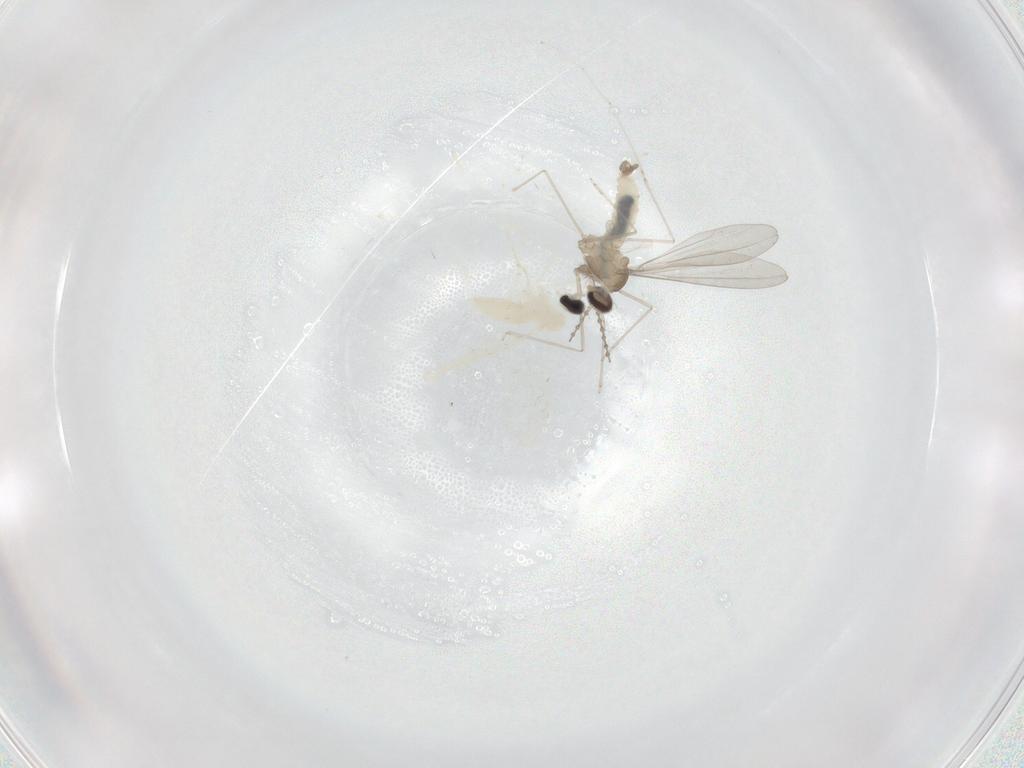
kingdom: Animalia
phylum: Arthropoda
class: Insecta
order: Diptera
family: Cecidomyiidae
